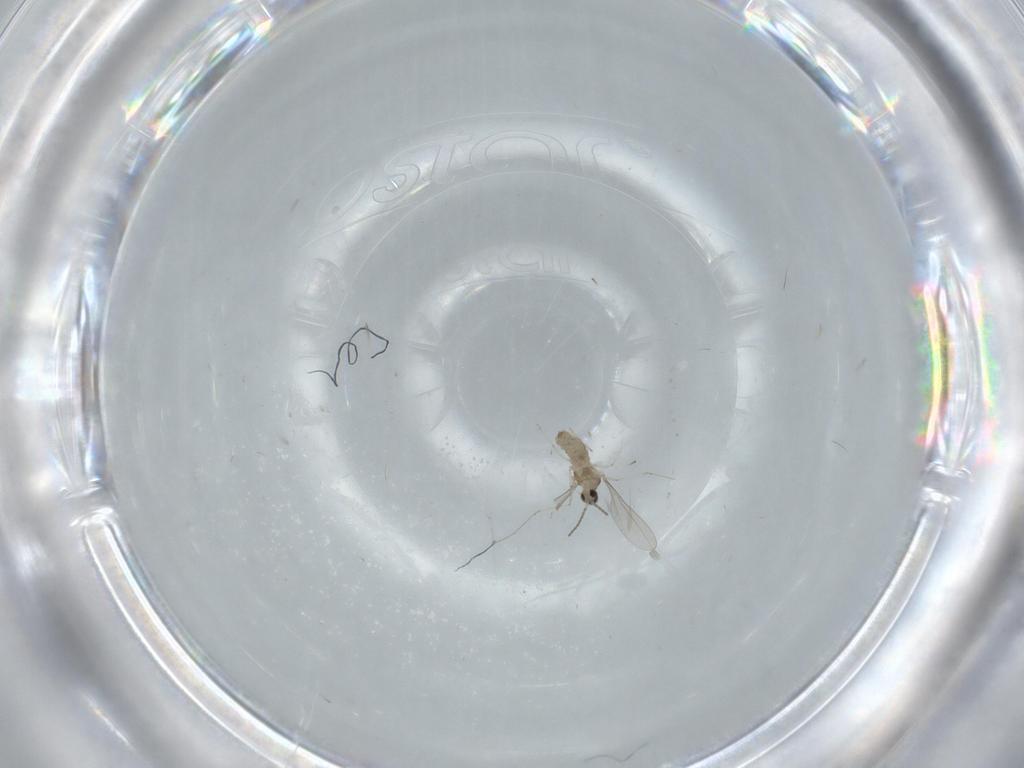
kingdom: Animalia
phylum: Arthropoda
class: Insecta
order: Diptera
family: Cecidomyiidae
